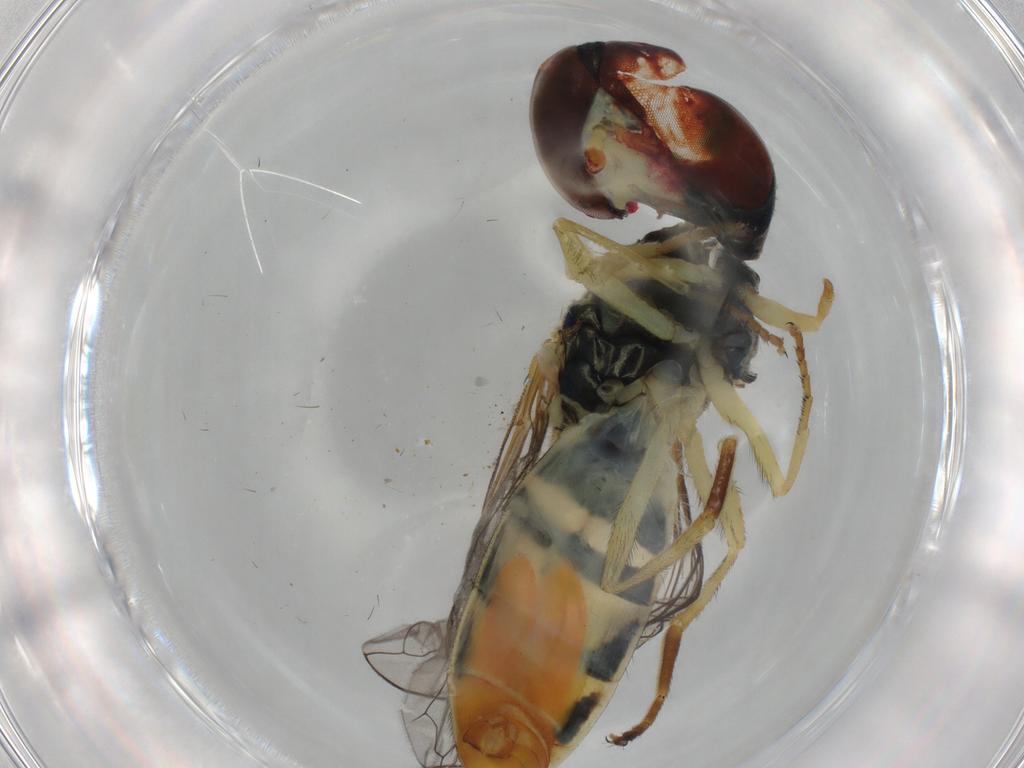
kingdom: Animalia
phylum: Arthropoda
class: Insecta
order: Diptera
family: Syrphidae
